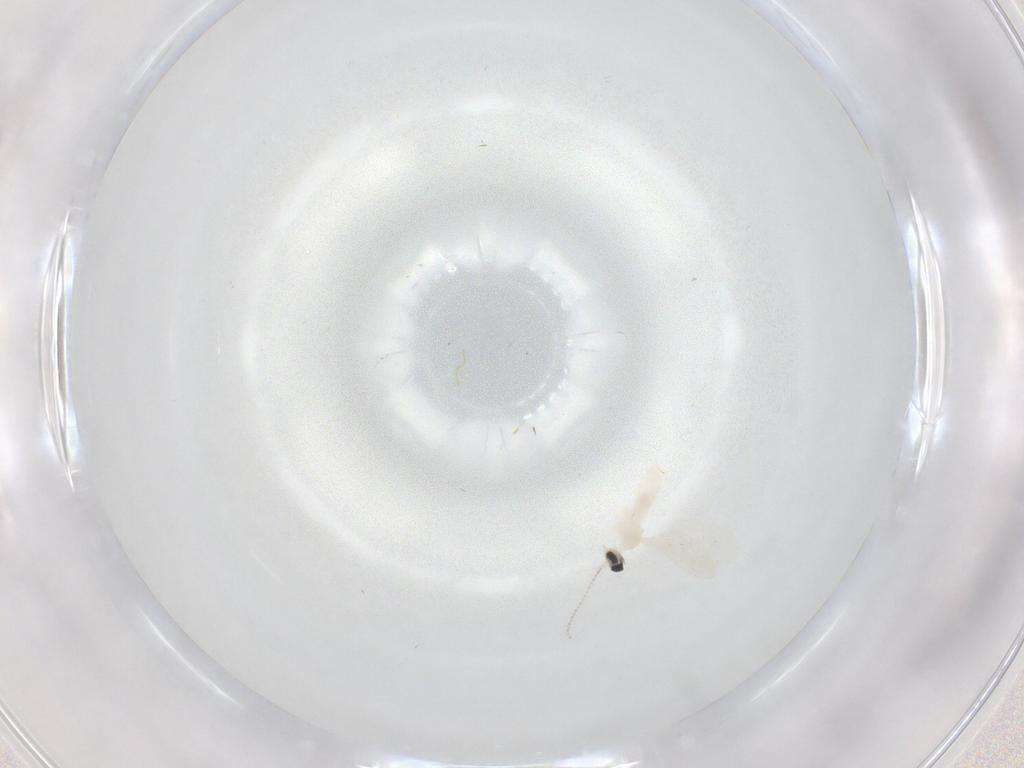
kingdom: Animalia
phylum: Arthropoda
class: Insecta
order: Diptera
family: Cecidomyiidae
